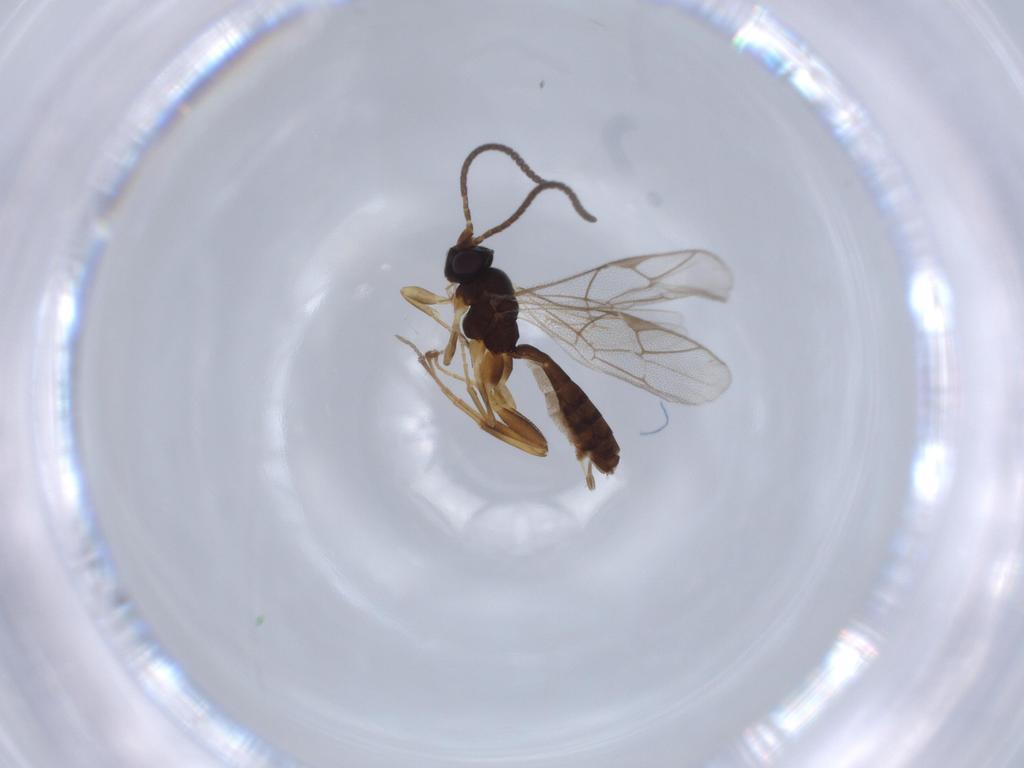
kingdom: Animalia
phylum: Arthropoda
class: Insecta
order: Hymenoptera
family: Ichneumonidae
